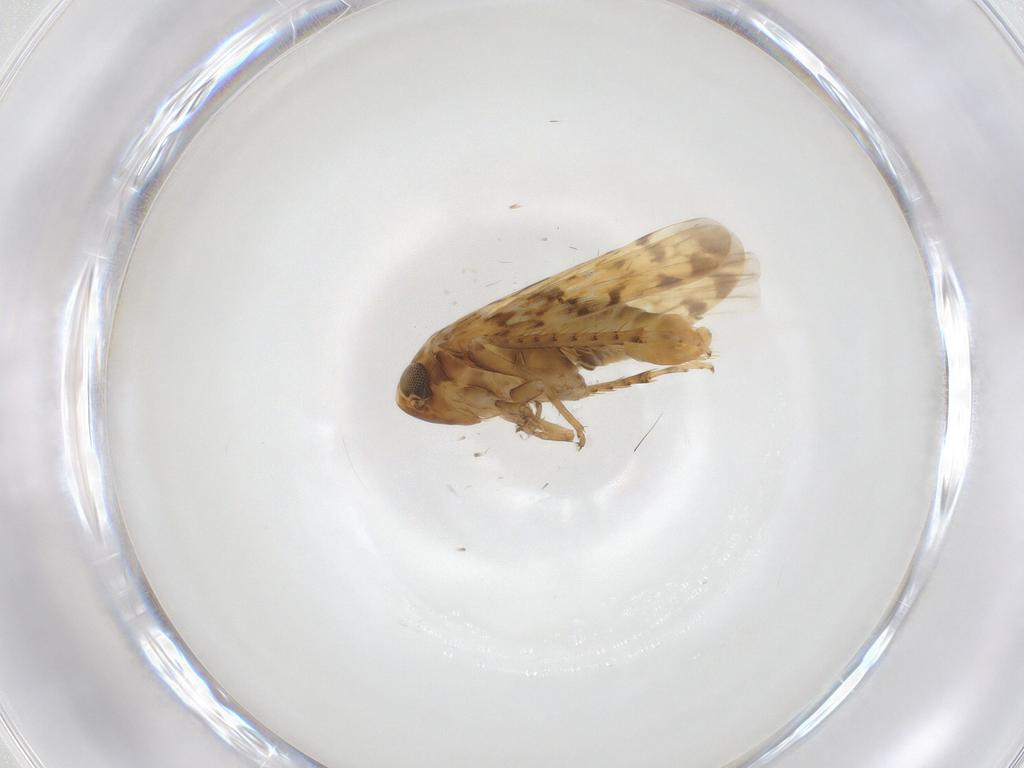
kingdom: Animalia
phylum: Arthropoda
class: Insecta
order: Hemiptera
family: Cicadellidae
